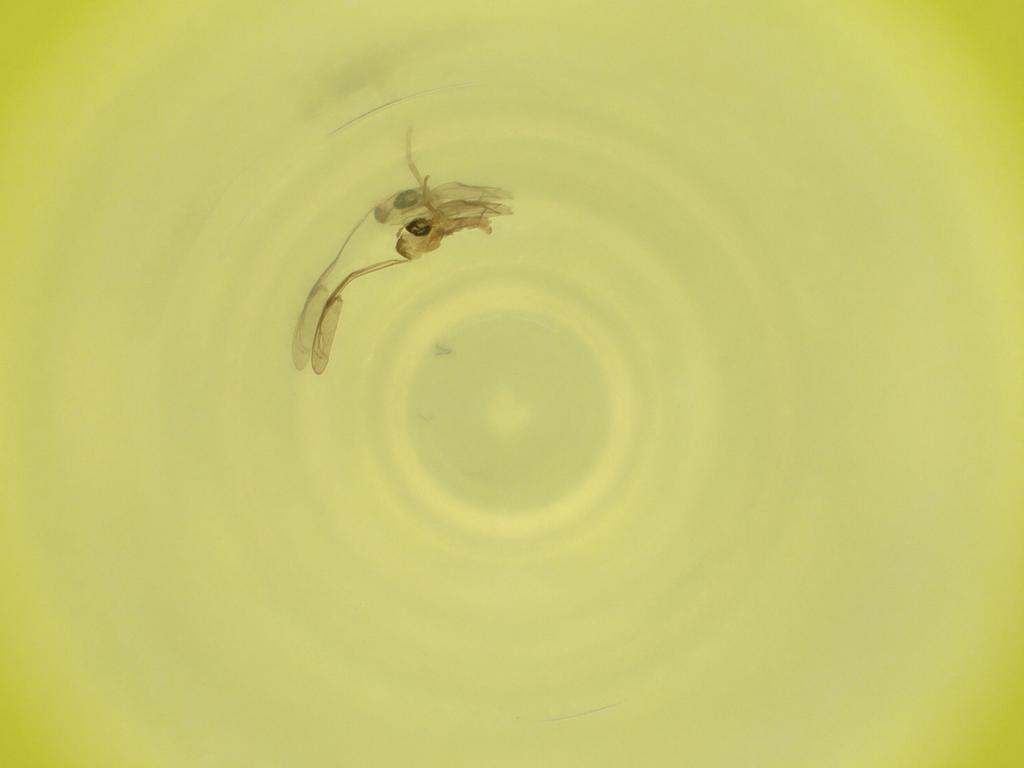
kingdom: Animalia
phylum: Arthropoda
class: Insecta
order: Diptera
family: Cecidomyiidae
